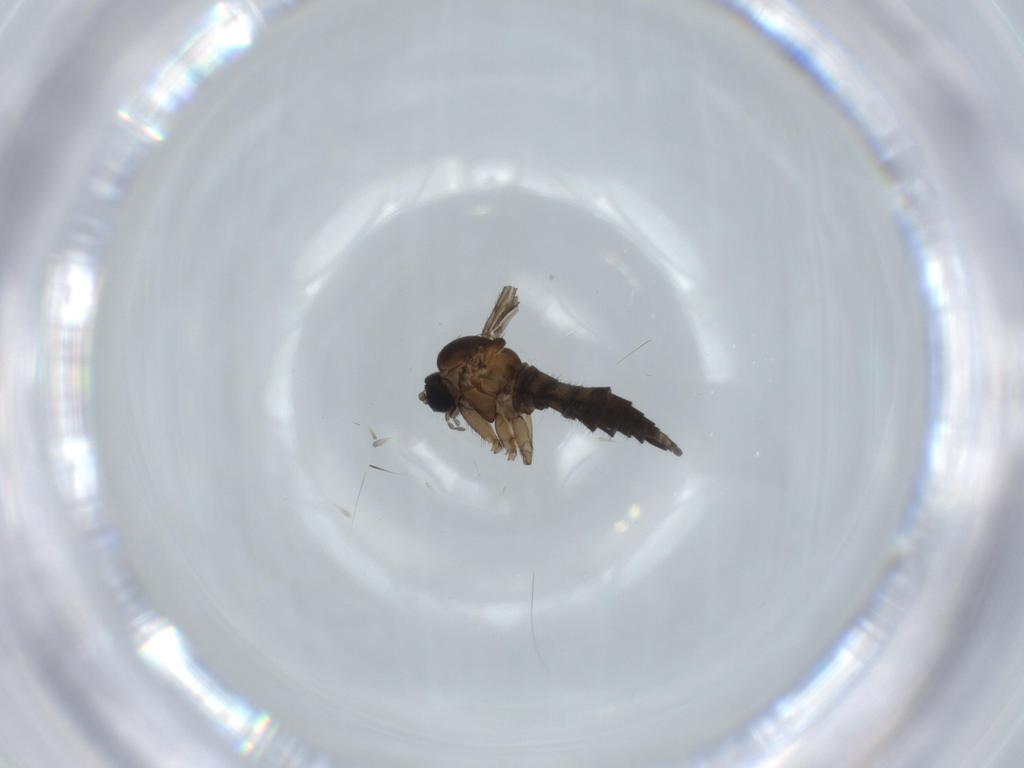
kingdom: Animalia
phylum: Arthropoda
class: Insecta
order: Diptera
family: Sciaridae
